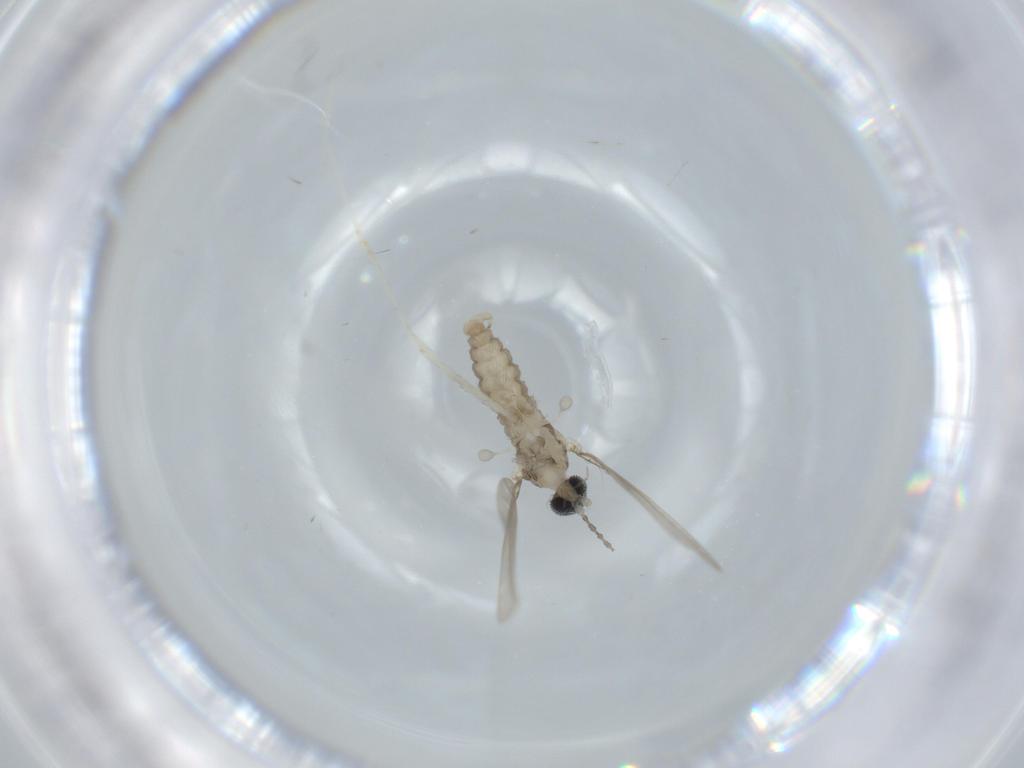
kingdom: Animalia
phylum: Arthropoda
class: Insecta
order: Diptera
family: Cecidomyiidae
